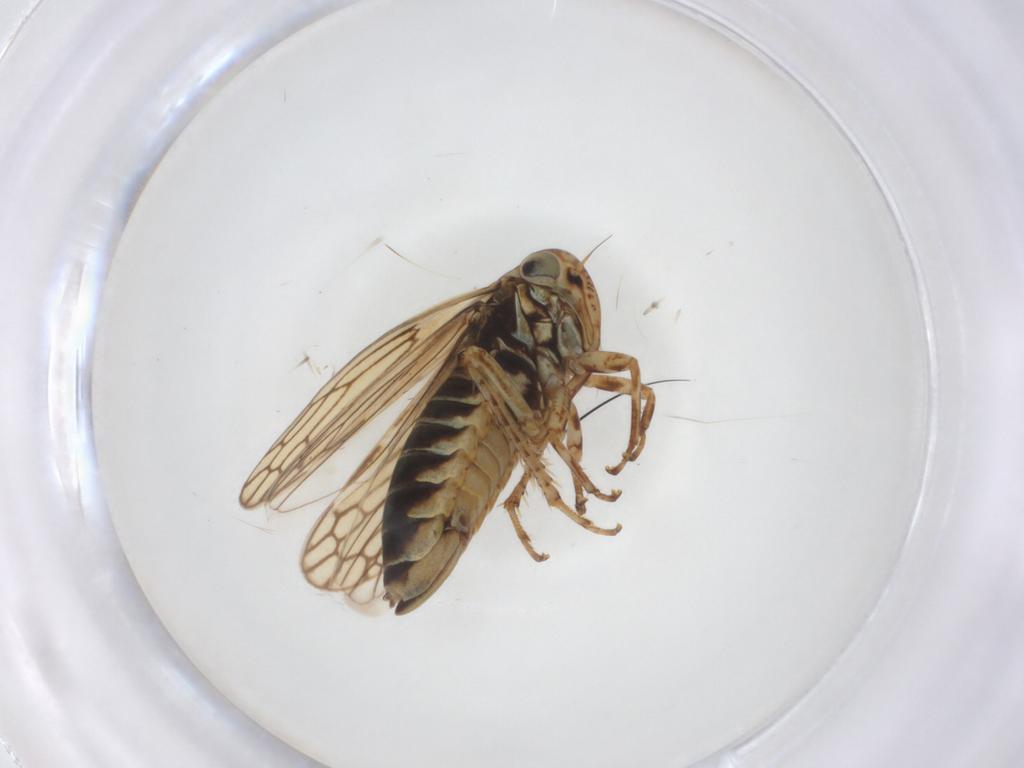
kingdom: Animalia
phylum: Arthropoda
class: Insecta
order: Hemiptera
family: Cicadellidae
